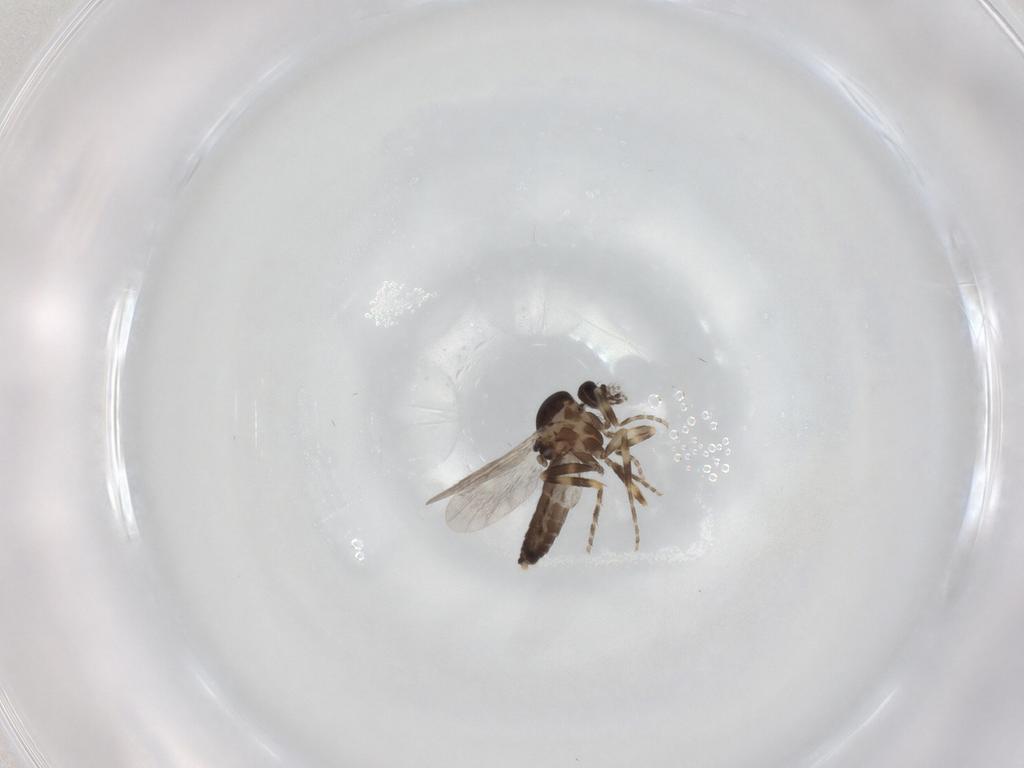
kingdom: Animalia
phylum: Arthropoda
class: Insecta
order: Diptera
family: Ceratopogonidae
